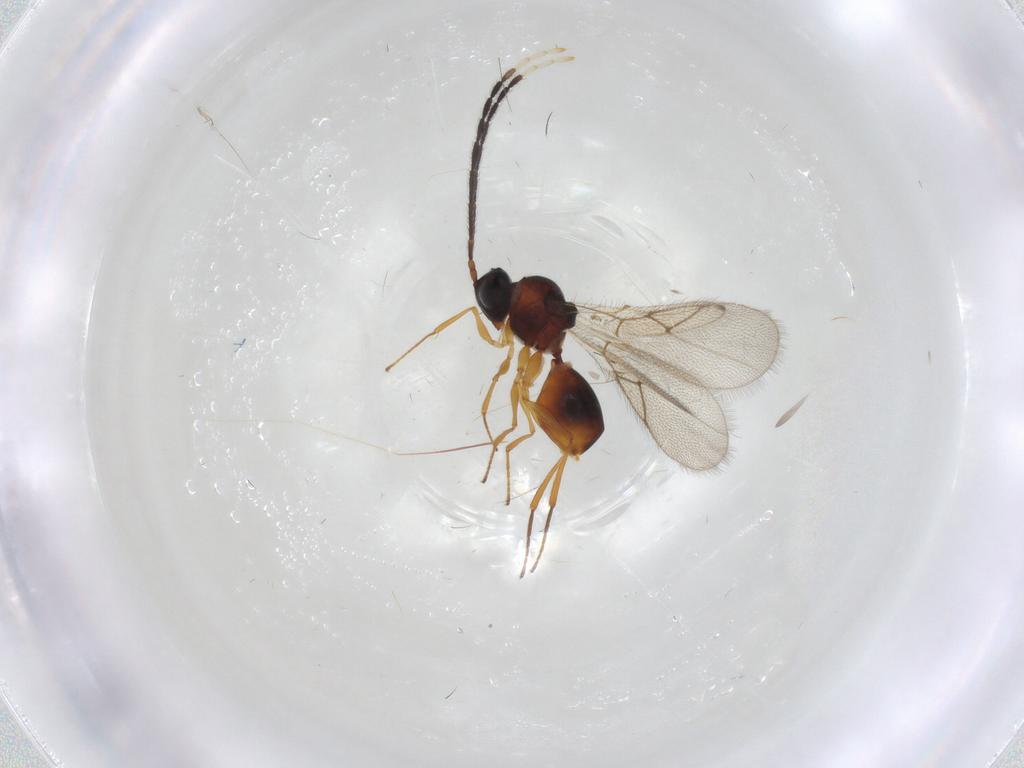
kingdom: Animalia
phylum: Arthropoda
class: Insecta
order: Hymenoptera
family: Figitidae
